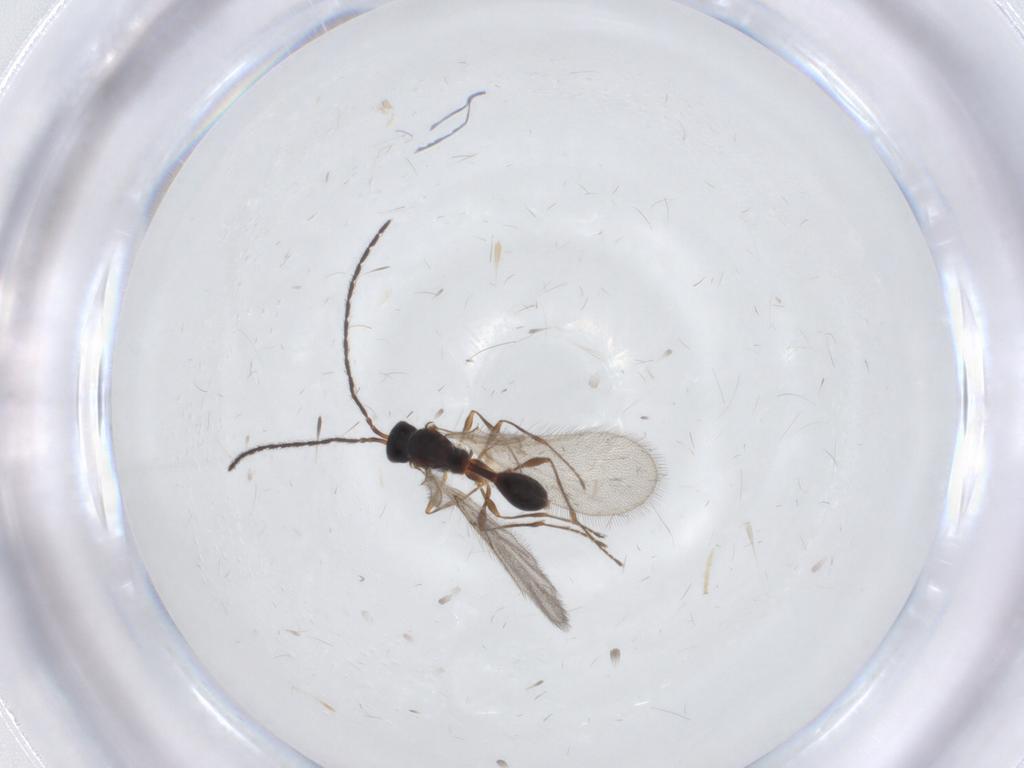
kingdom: Animalia
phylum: Arthropoda
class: Insecta
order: Hymenoptera
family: Diapriidae
